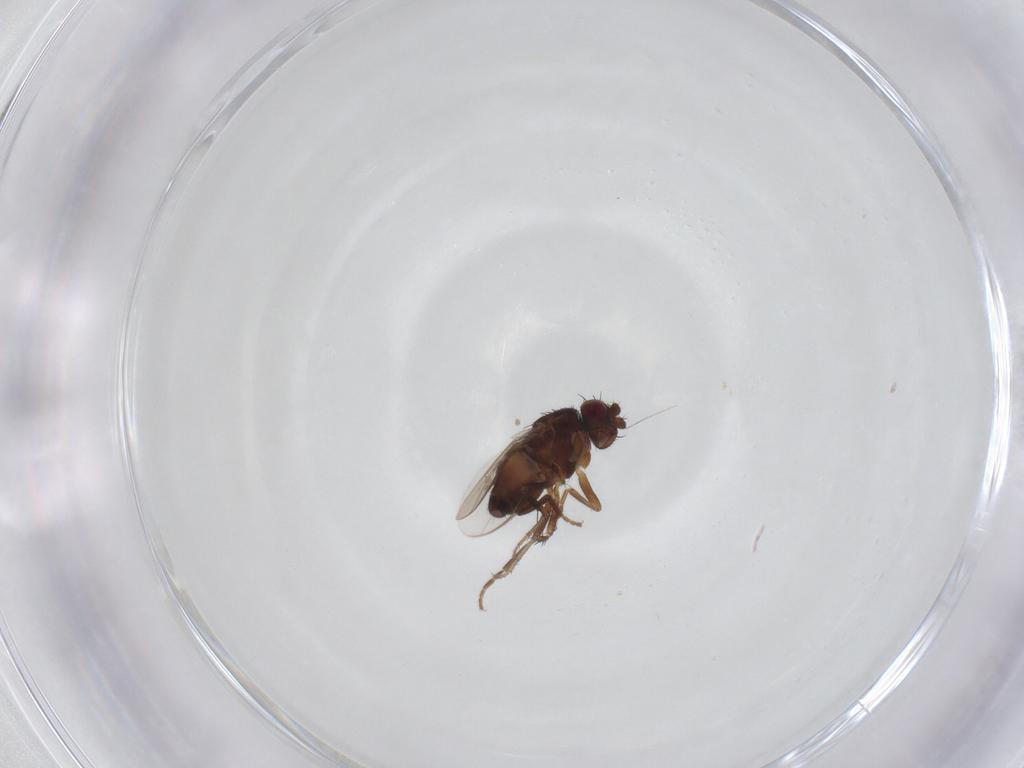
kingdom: Animalia
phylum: Arthropoda
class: Insecta
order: Diptera
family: Sphaeroceridae
